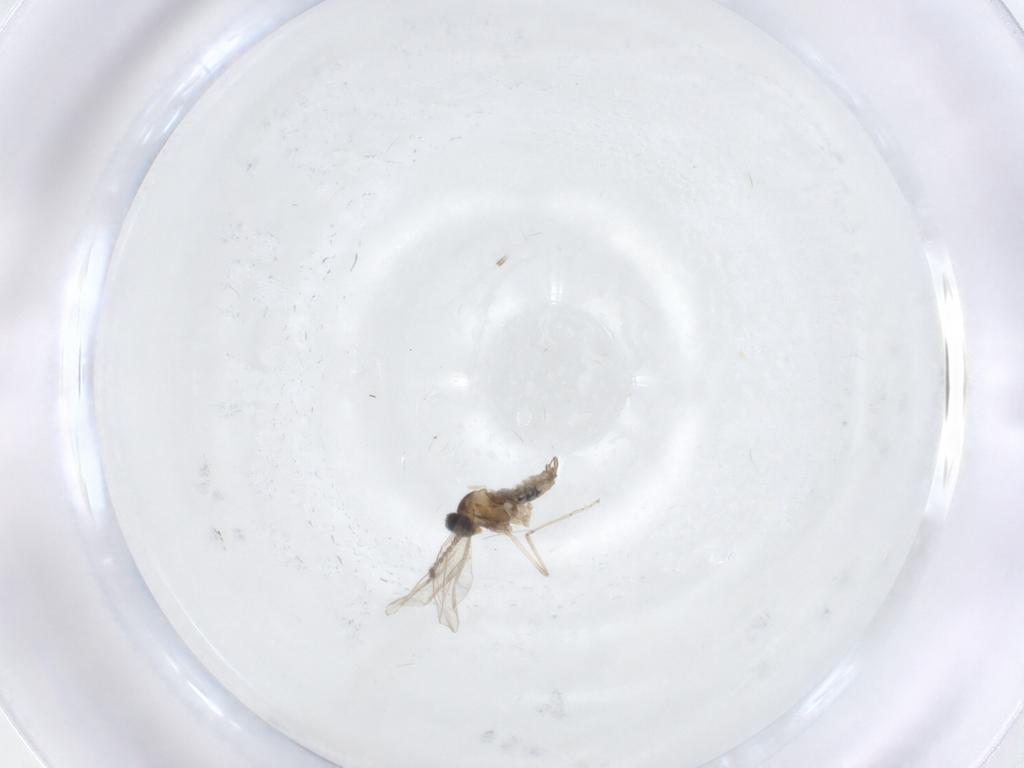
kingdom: Animalia
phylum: Arthropoda
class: Insecta
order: Diptera
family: Cecidomyiidae
